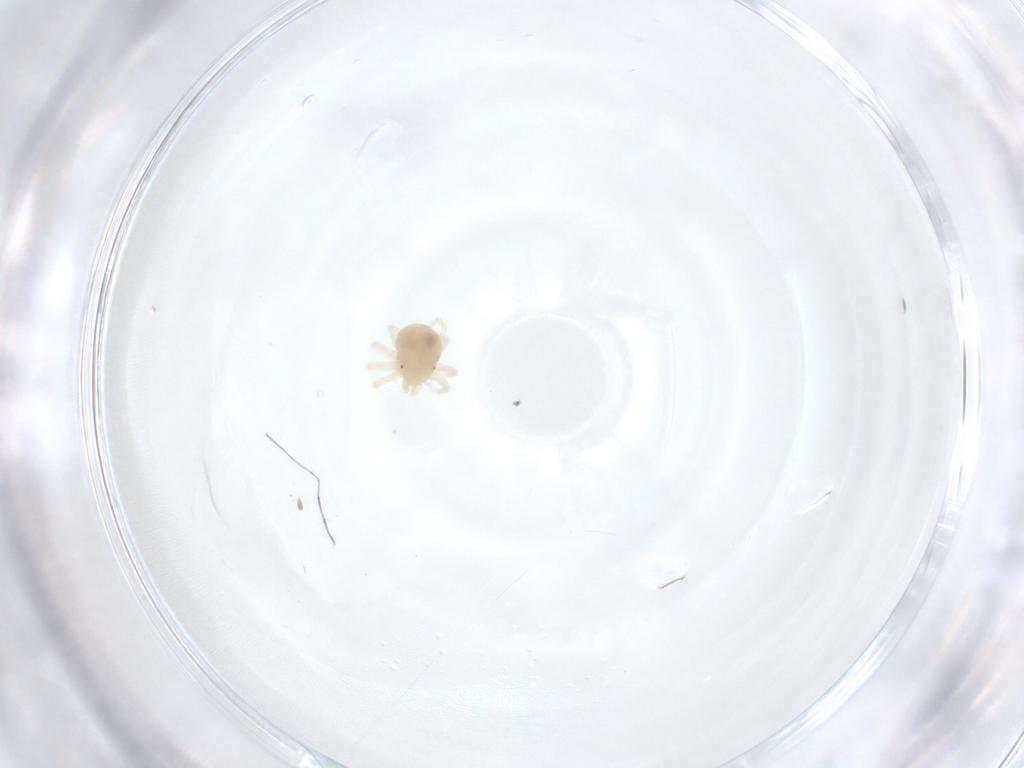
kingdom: Animalia
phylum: Arthropoda
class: Arachnida
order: Trombidiformes
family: Anystidae
